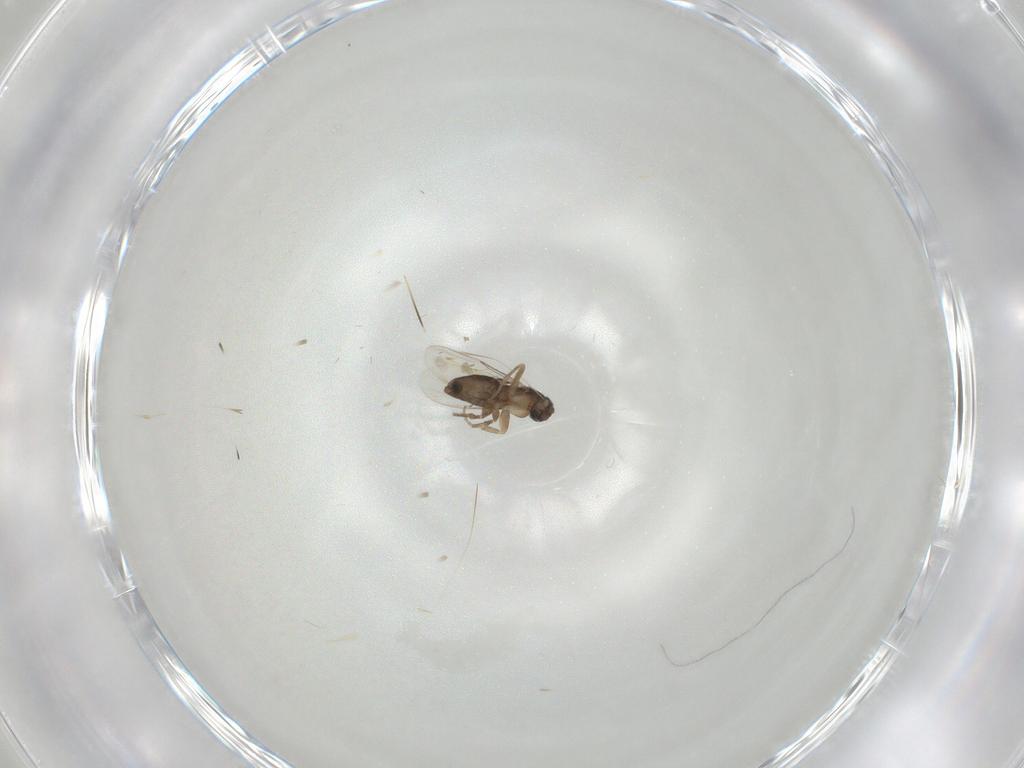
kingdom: Animalia
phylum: Arthropoda
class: Insecta
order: Diptera
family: Cecidomyiidae
